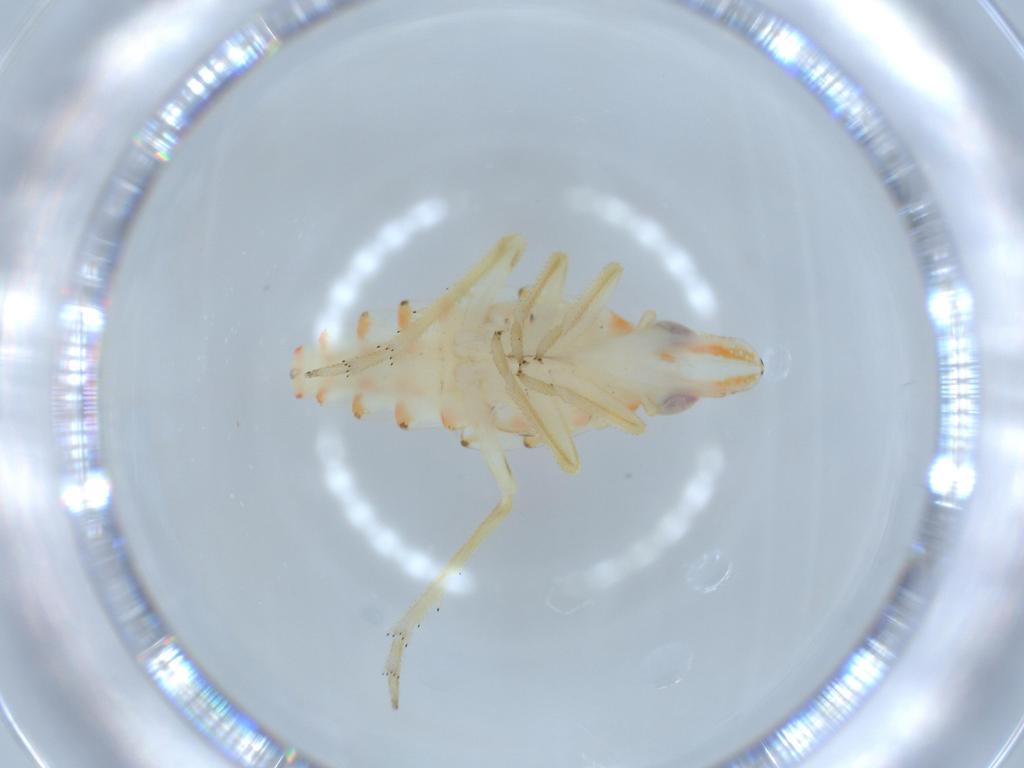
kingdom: Animalia
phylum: Arthropoda
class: Insecta
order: Hemiptera
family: Tropiduchidae
